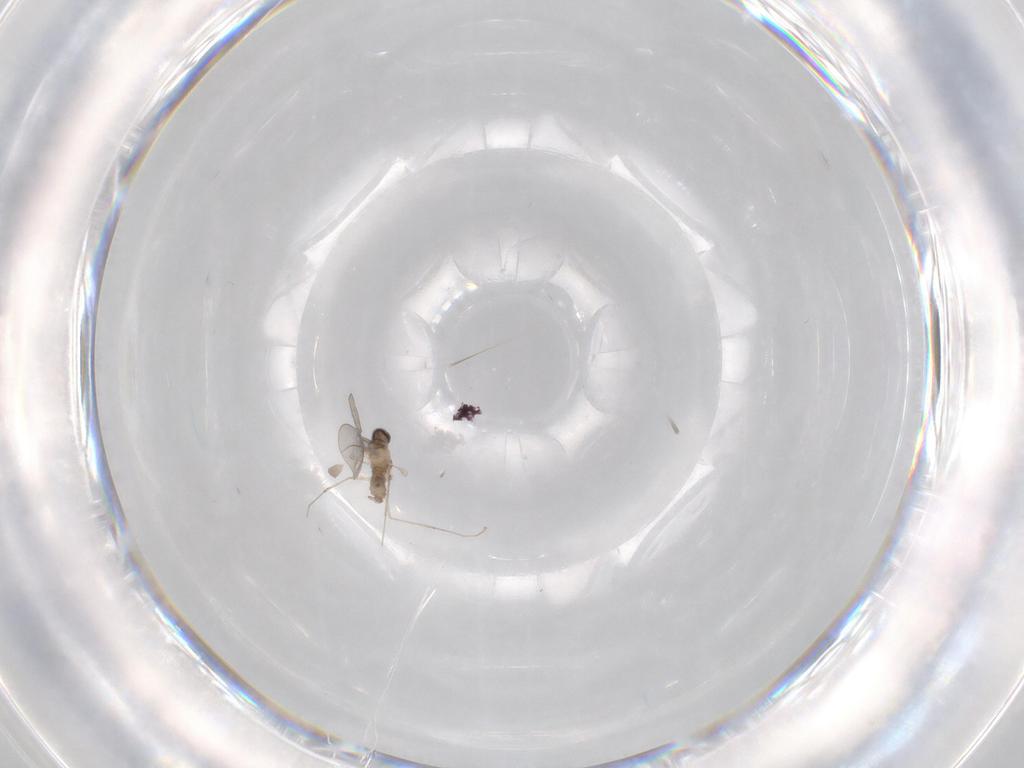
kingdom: Animalia
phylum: Arthropoda
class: Insecta
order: Diptera
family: Cecidomyiidae
